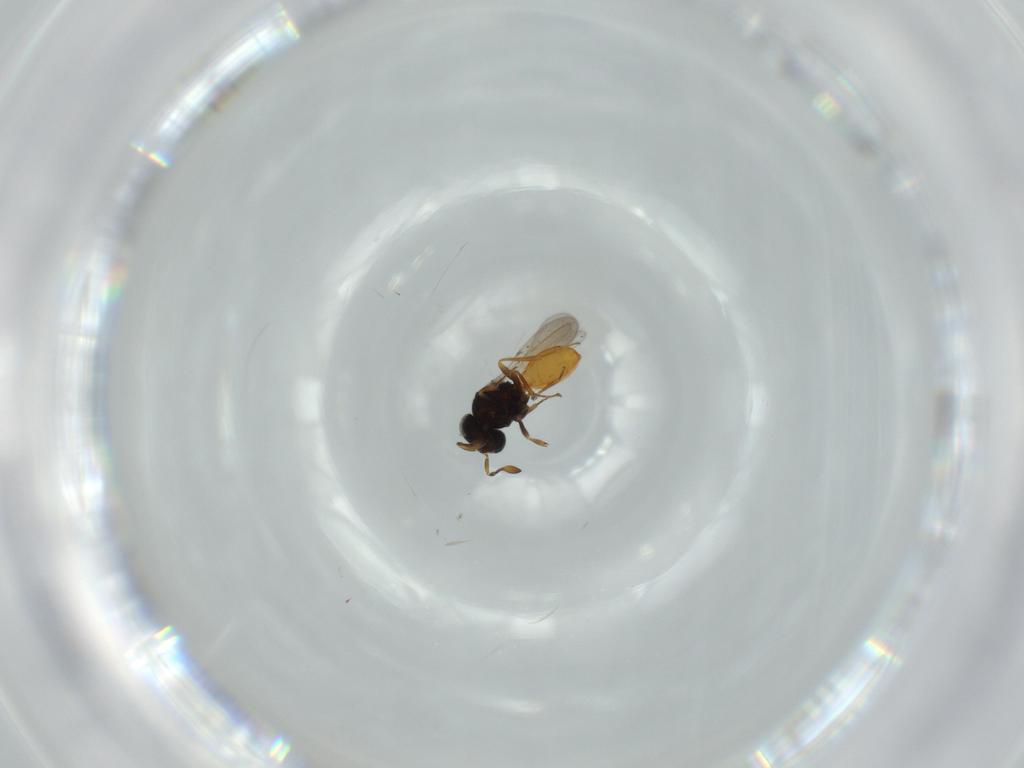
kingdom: Animalia
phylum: Arthropoda
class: Insecta
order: Hymenoptera
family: Scelionidae
